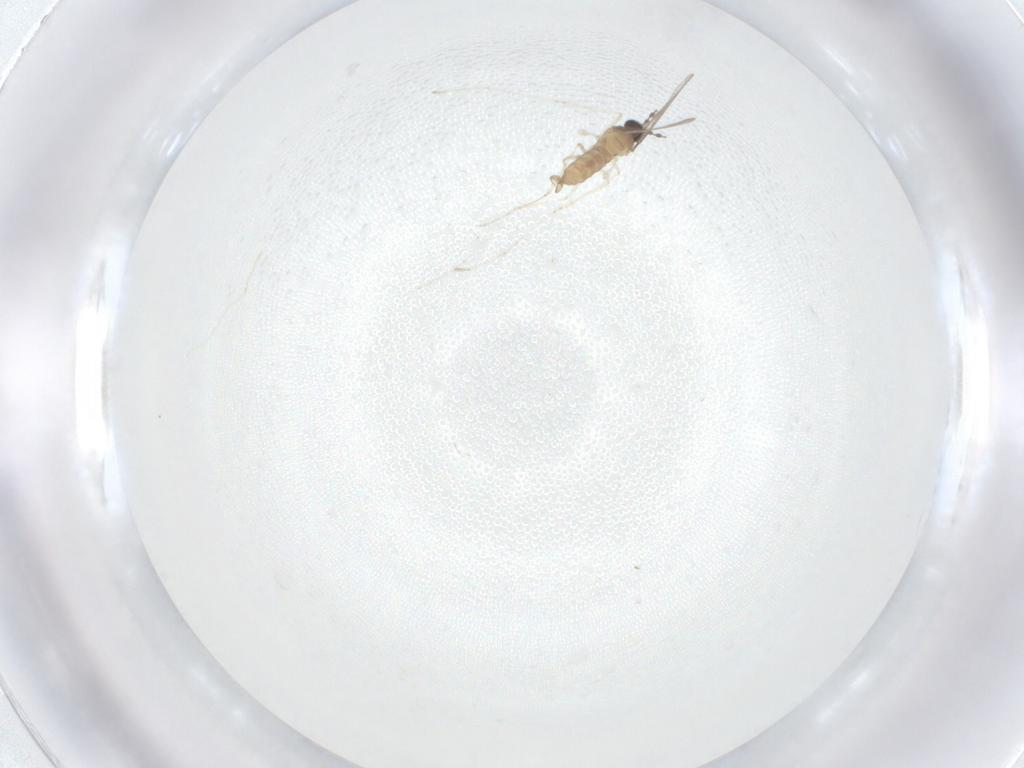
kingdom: Animalia
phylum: Arthropoda
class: Insecta
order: Diptera
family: Cecidomyiidae
